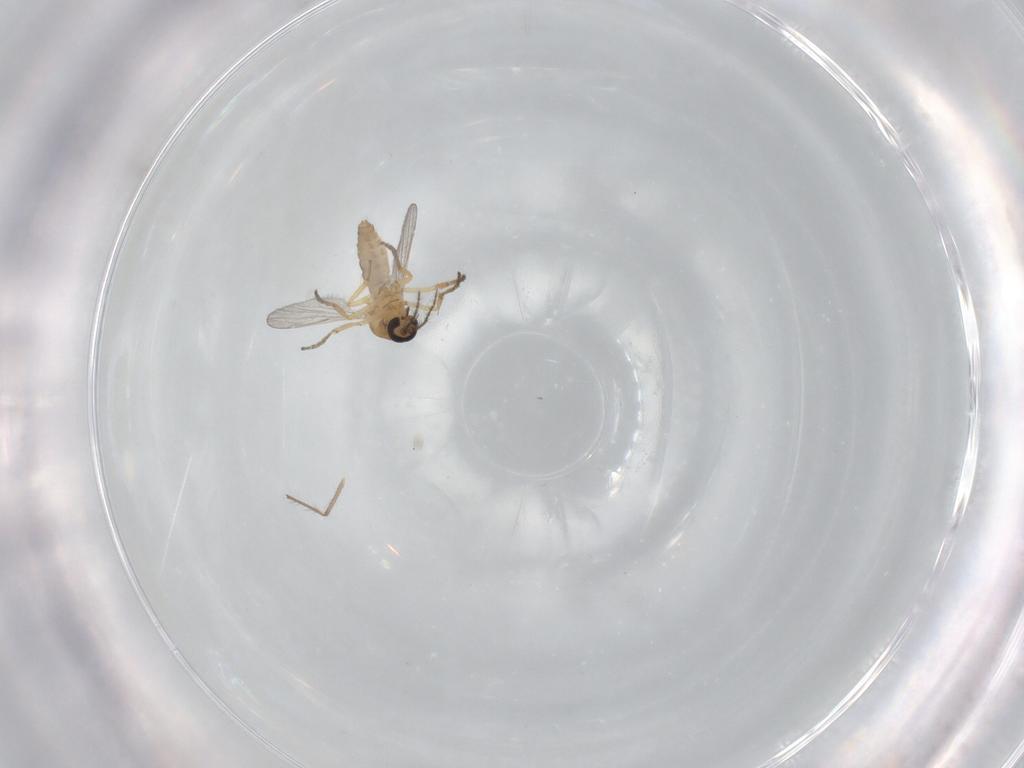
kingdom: Animalia
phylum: Arthropoda
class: Insecta
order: Diptera
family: Ceratopogonidae
